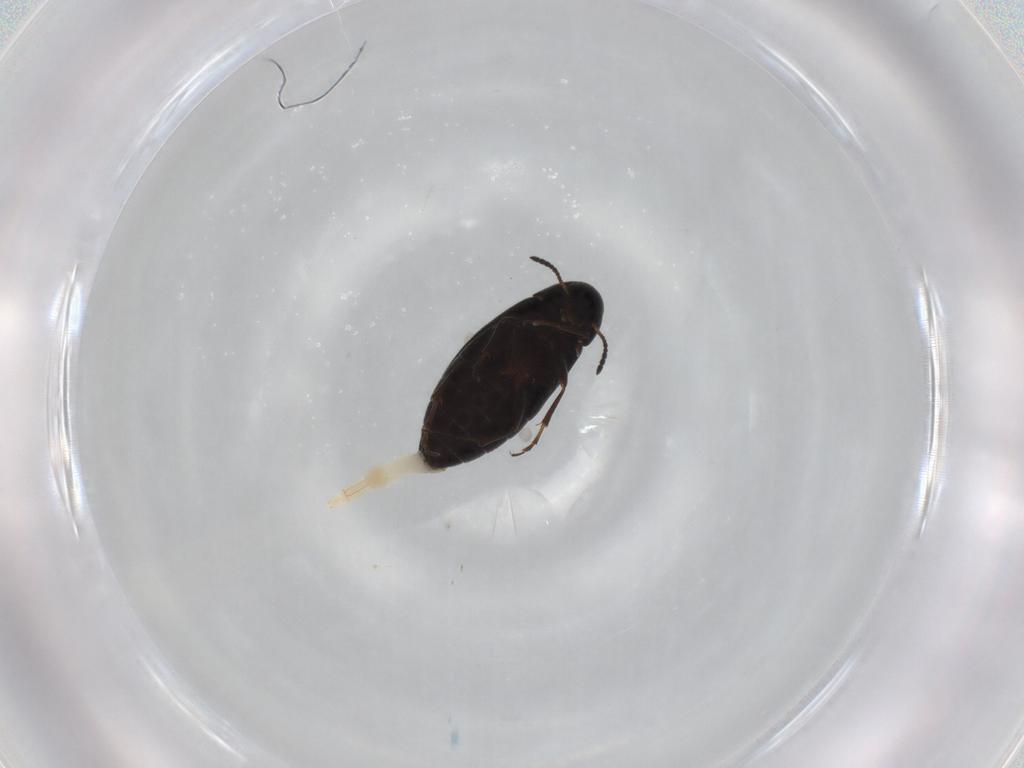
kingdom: Animalia
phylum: Arthropoda
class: Insecta
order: Coleoptera
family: Scraptiidae
